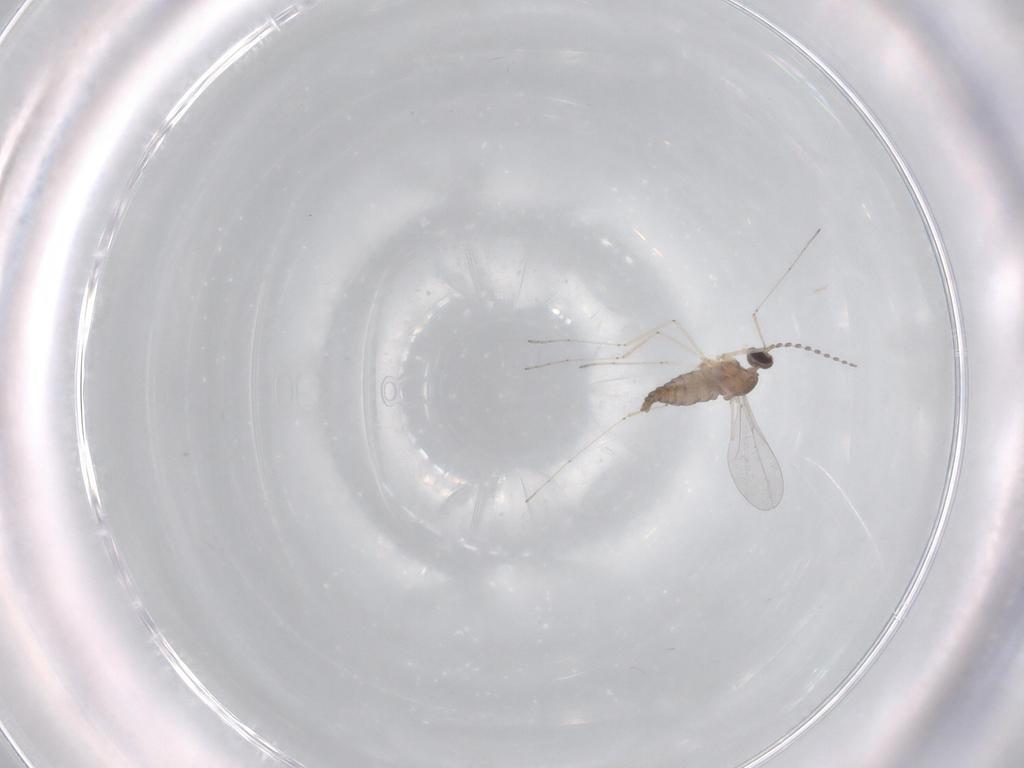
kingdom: Animalia
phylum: Arthropoda
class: Insecta
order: Diptera
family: Cecidomyiidae
